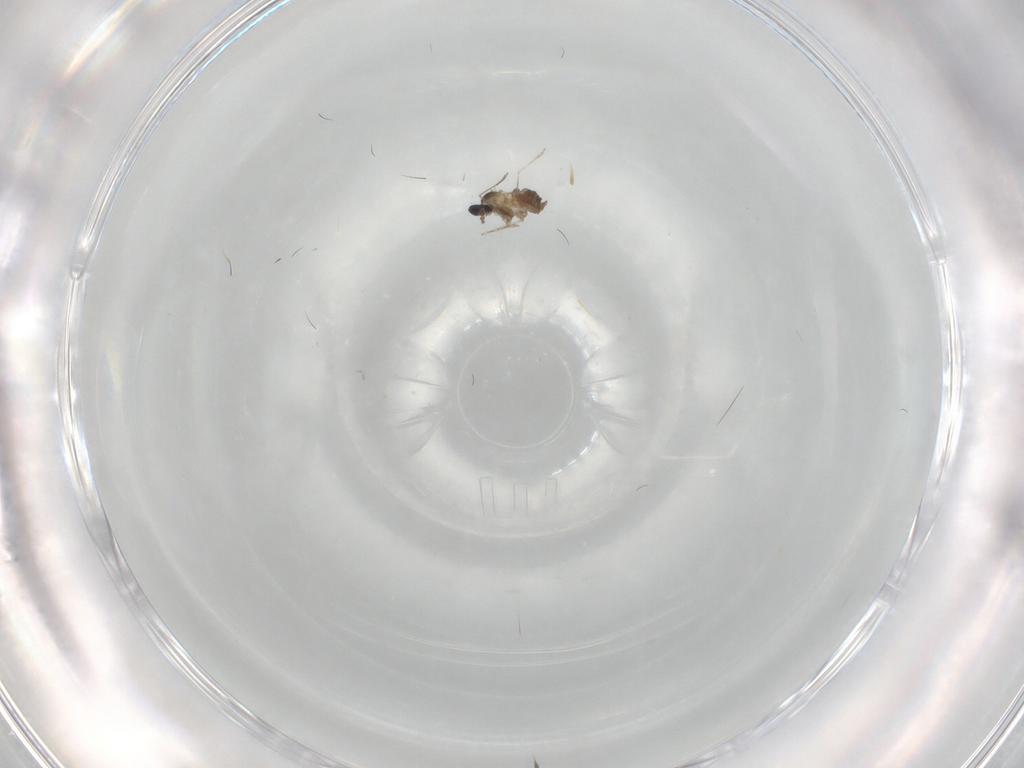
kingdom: Animalia
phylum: Arthropoda
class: Insecta
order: Diptera
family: Cecidomyiidae
